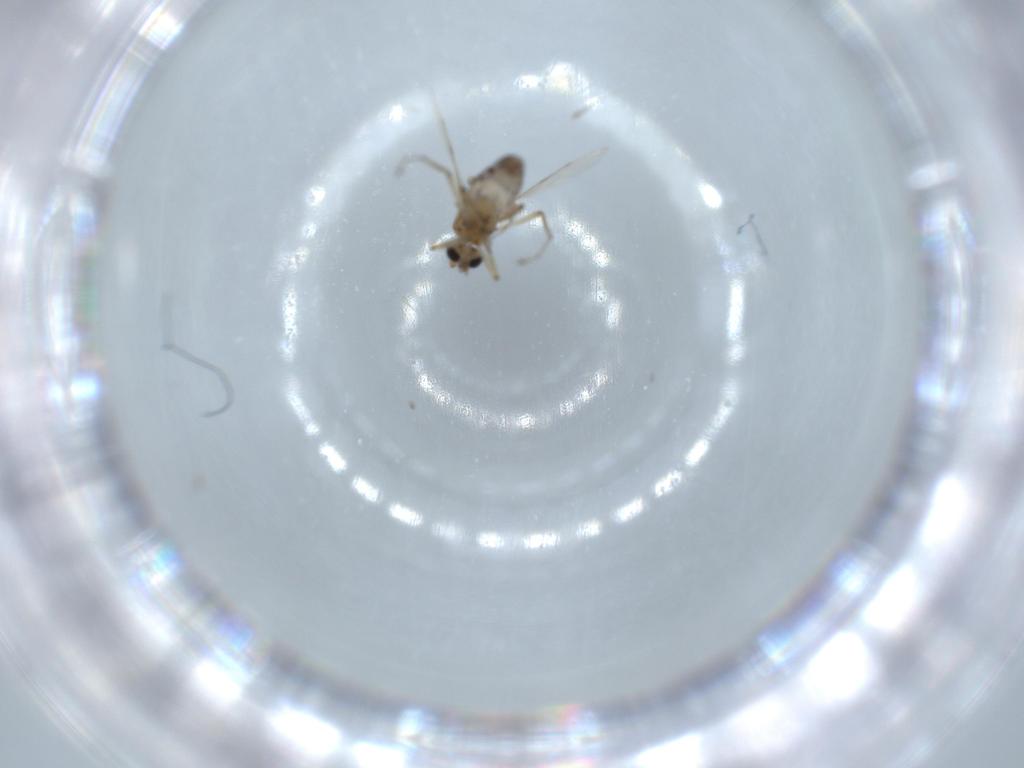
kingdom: Animalia
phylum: Arthropoda
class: Insecta
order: Diptera
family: Ceratopogonidae
